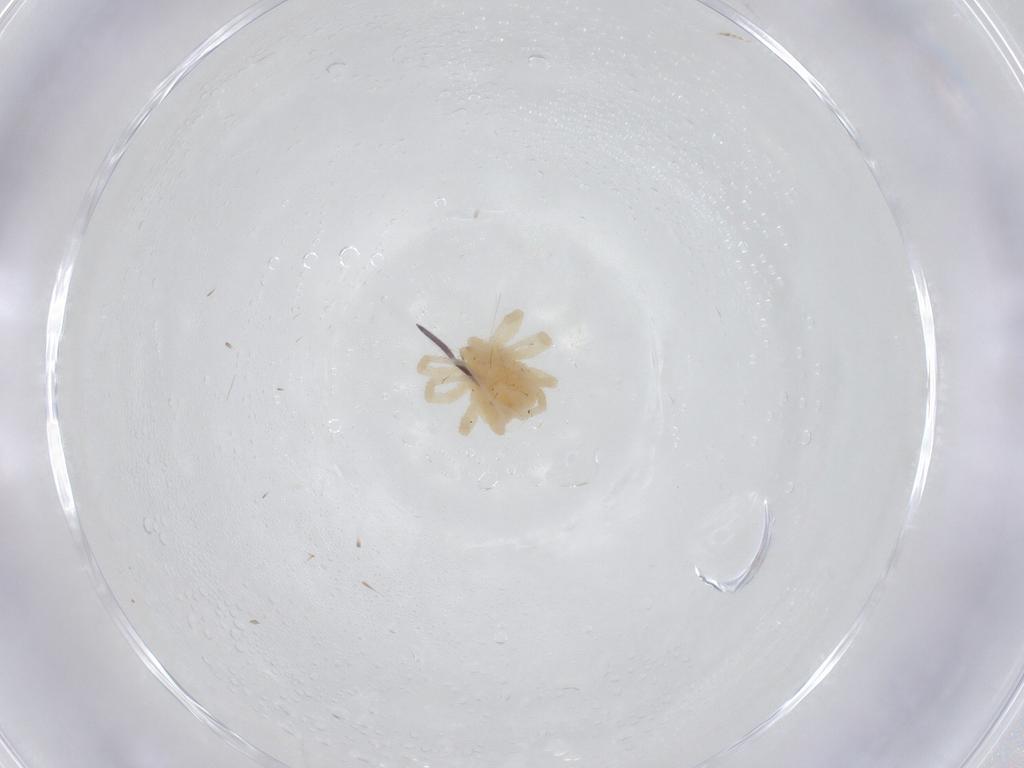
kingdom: Animalia
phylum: Arthropoda
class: Arachnida
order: Trombidiformes
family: Anystidae
